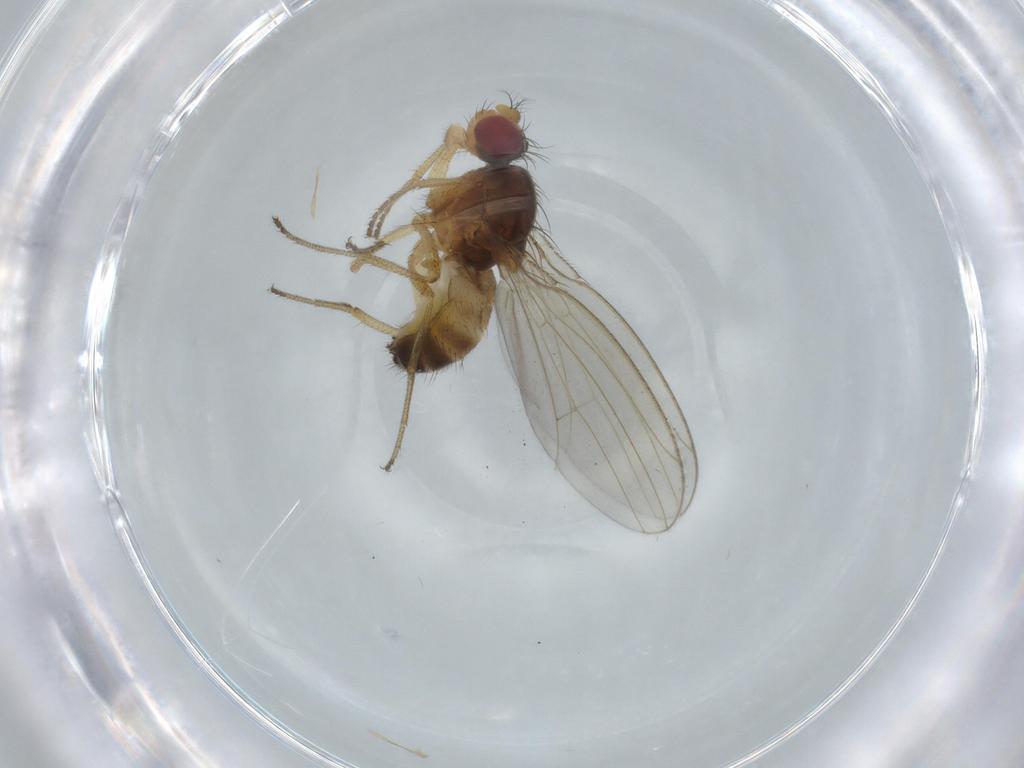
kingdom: Animalia
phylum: Arthropoda
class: Insecta
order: Diptera
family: Drosophilidae
